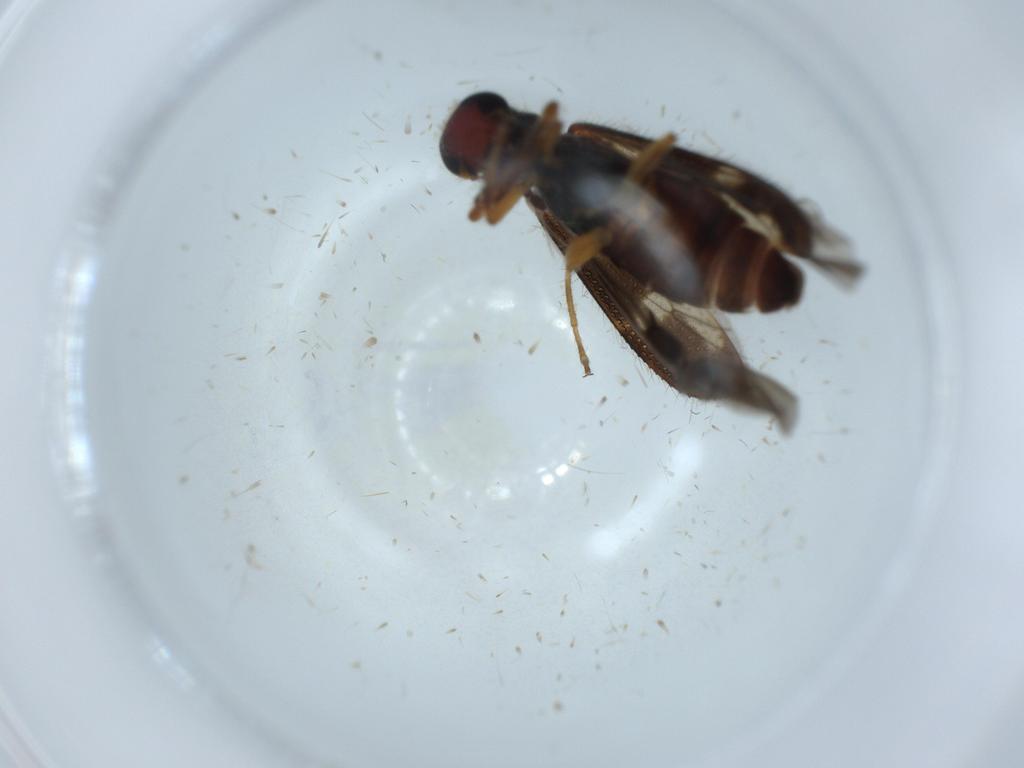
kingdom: Animalia
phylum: Arthropoda
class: Insecta
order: Coleoptera
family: Cleridae
